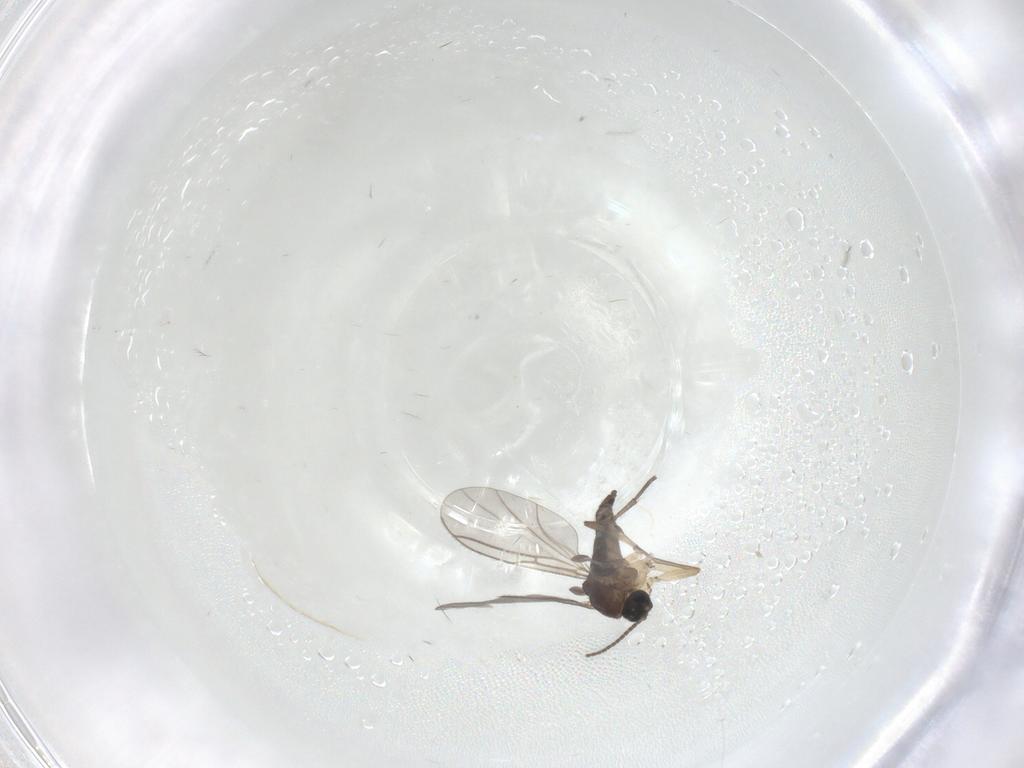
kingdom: Animalia
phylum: Arthropoda
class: Insecta
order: Diptera
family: Sciaridae
